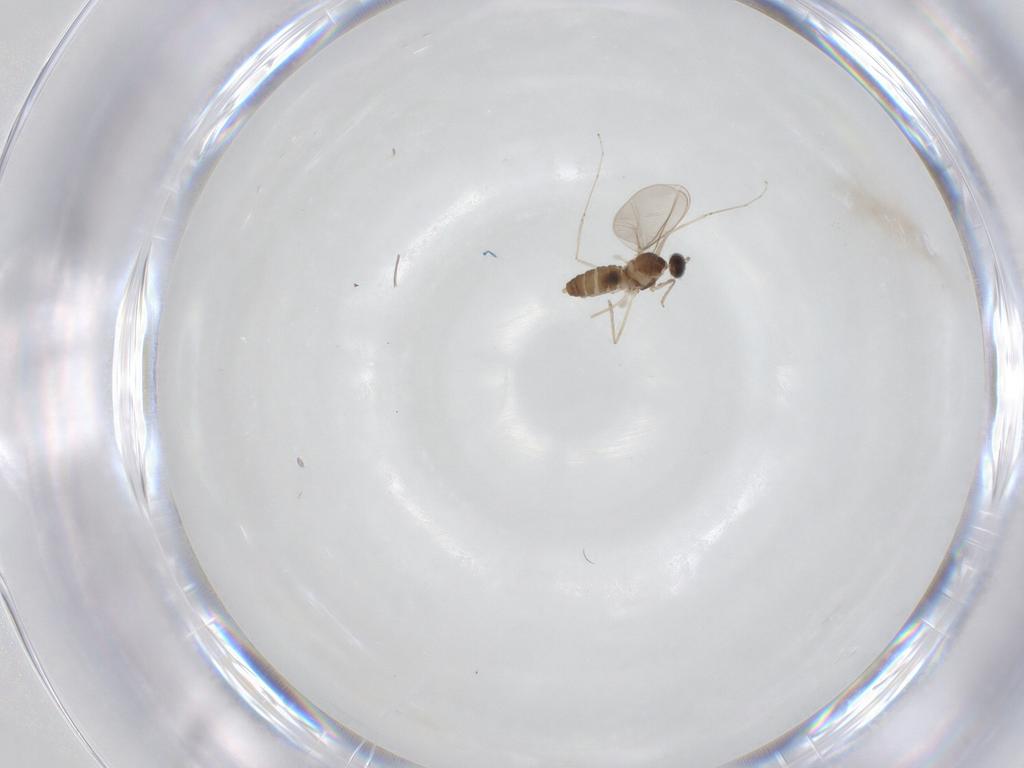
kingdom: Animalia
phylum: Arthropoda
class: Insecta
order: Diptera
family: Cecidomyiidae
